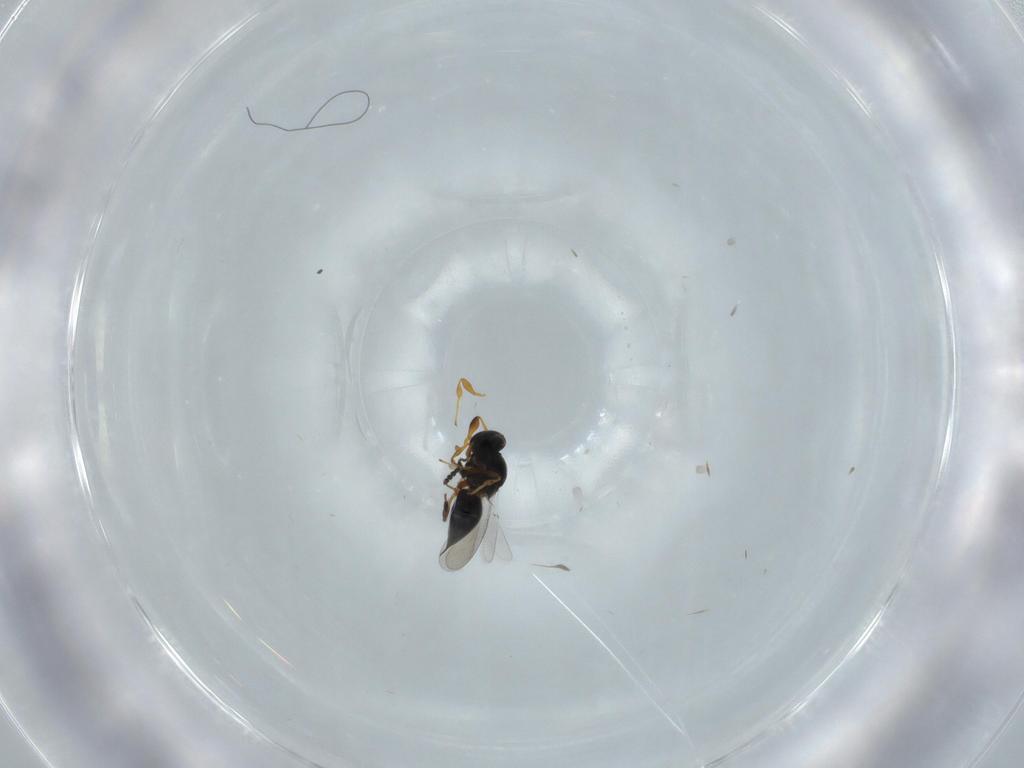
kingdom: Animalia
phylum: Arthropoda
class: Insecta
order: Hymenoptera
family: Platygastridae
